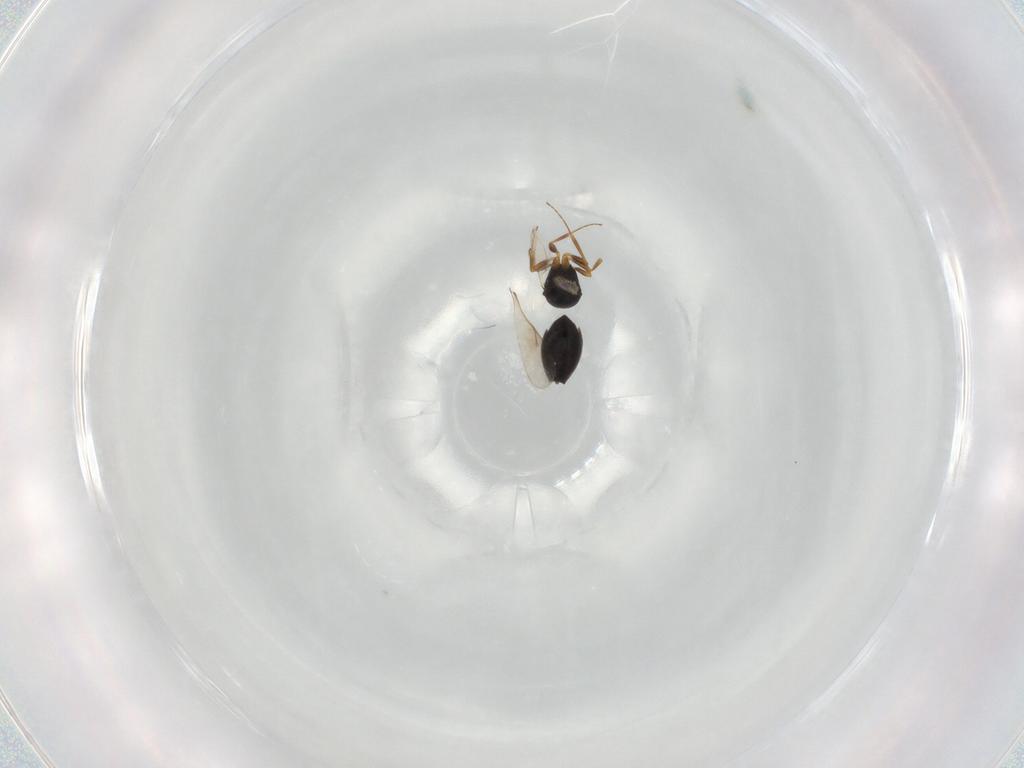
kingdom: Animalia
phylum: Arthropoda
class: Insecta
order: Hymenoptera
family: Scelionidae
